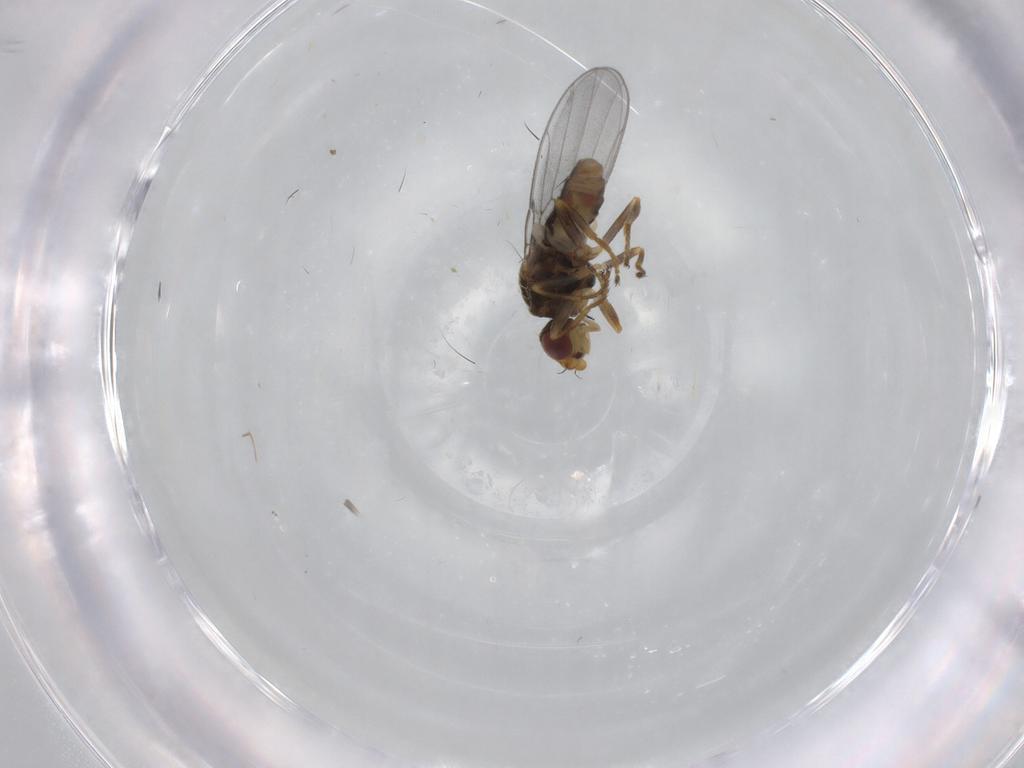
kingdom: Animalia
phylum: Arthropoda
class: Insecta
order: Diptera
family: Chloropidae
